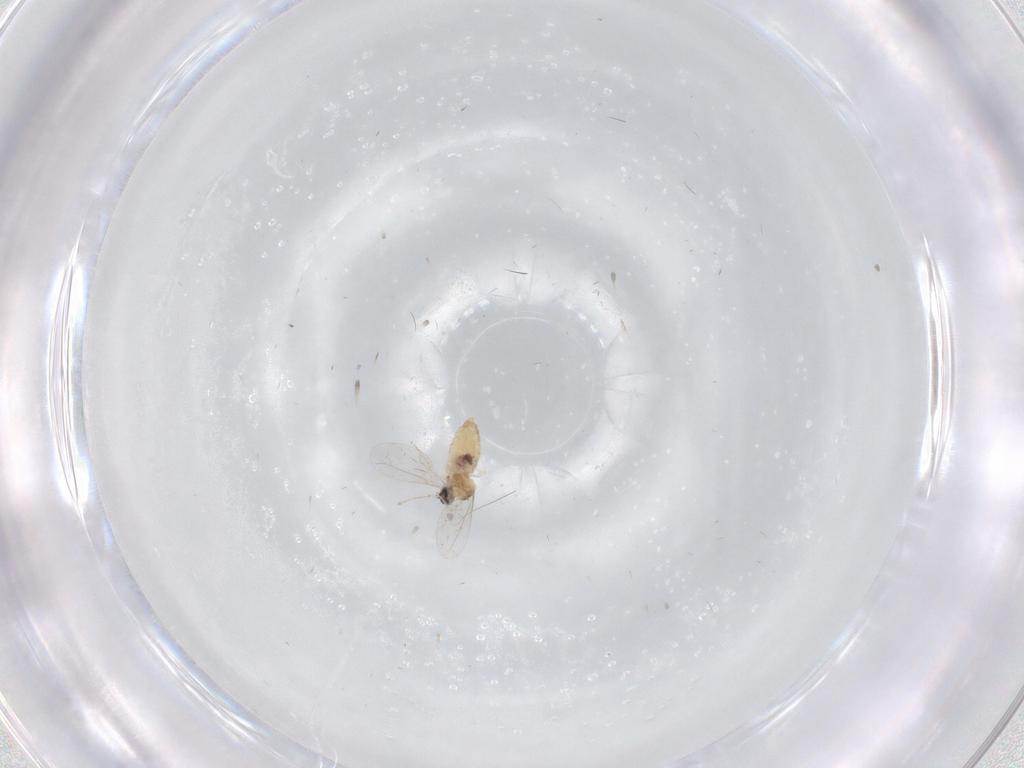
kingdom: Animalia
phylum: Arthropoda
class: Insecta
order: Diptera
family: Cecidomyiidae
